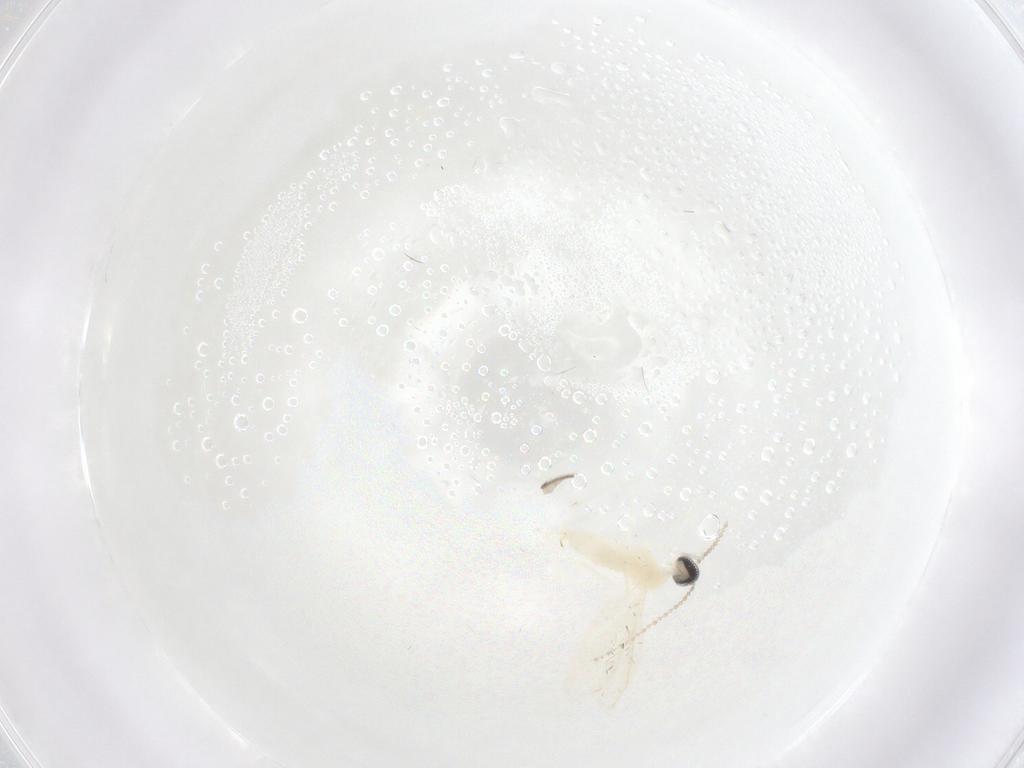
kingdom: Animalia
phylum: Arthropoda
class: Insecta
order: Diptera
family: Cecidomyiidae
